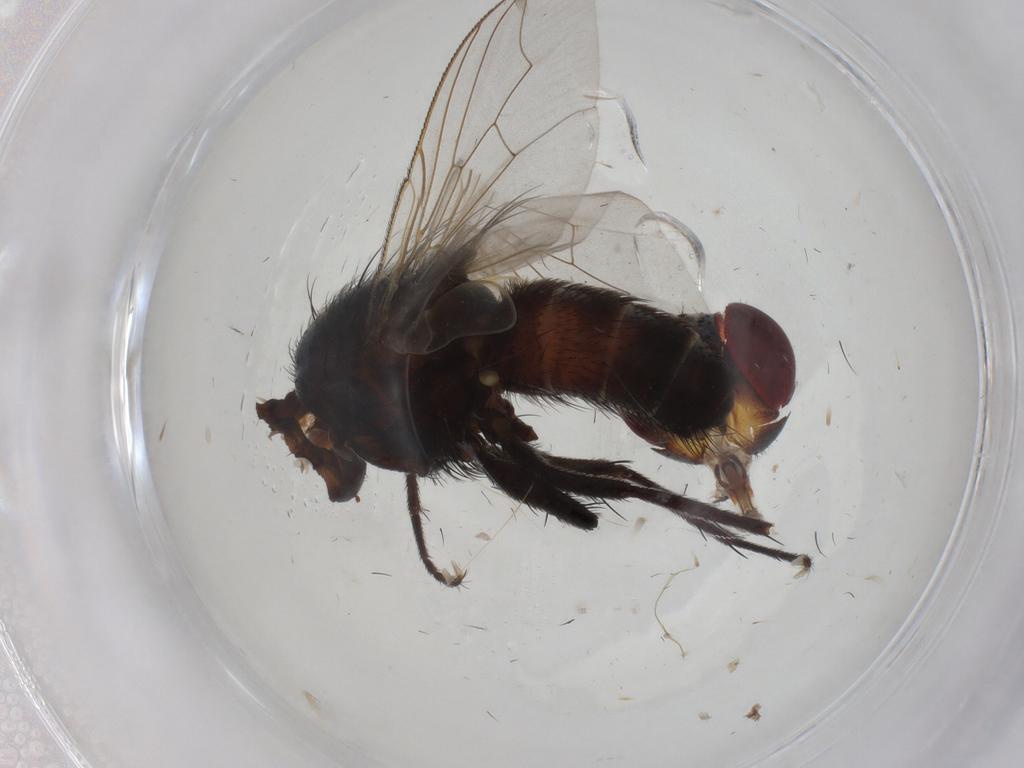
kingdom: Animalia
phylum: Arthropoda
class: Insecta
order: Diptera
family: Sarcophagidae
